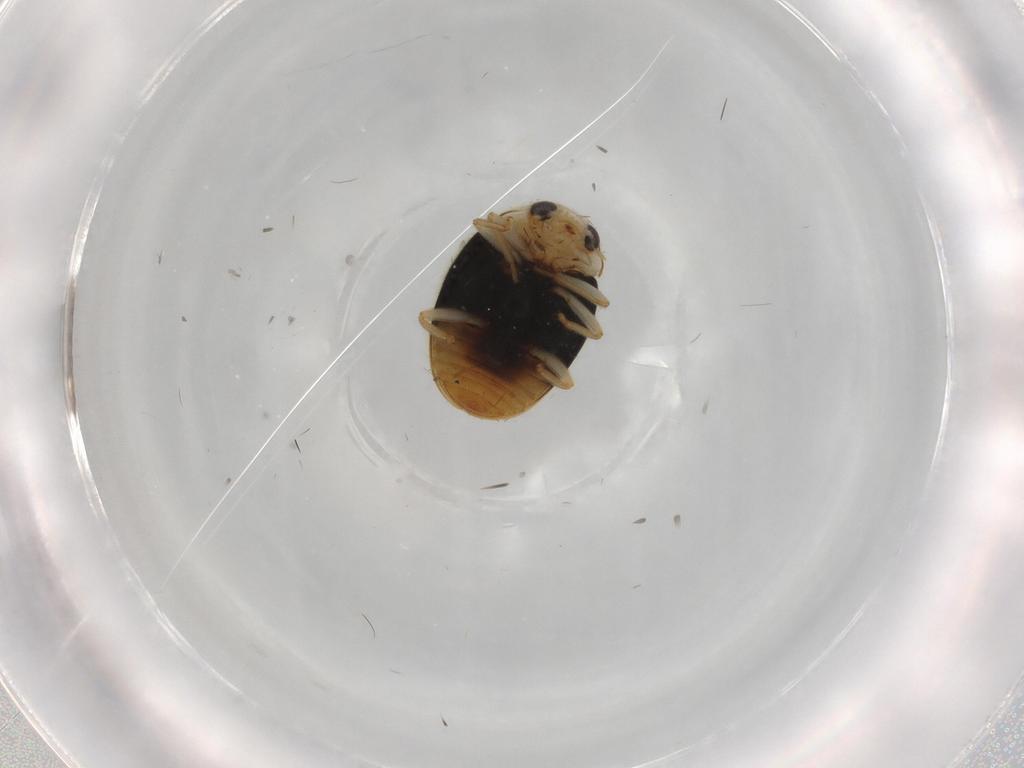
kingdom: Animalia
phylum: Arthropoda
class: Insecta
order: Coleoptera
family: Coccinellidae
